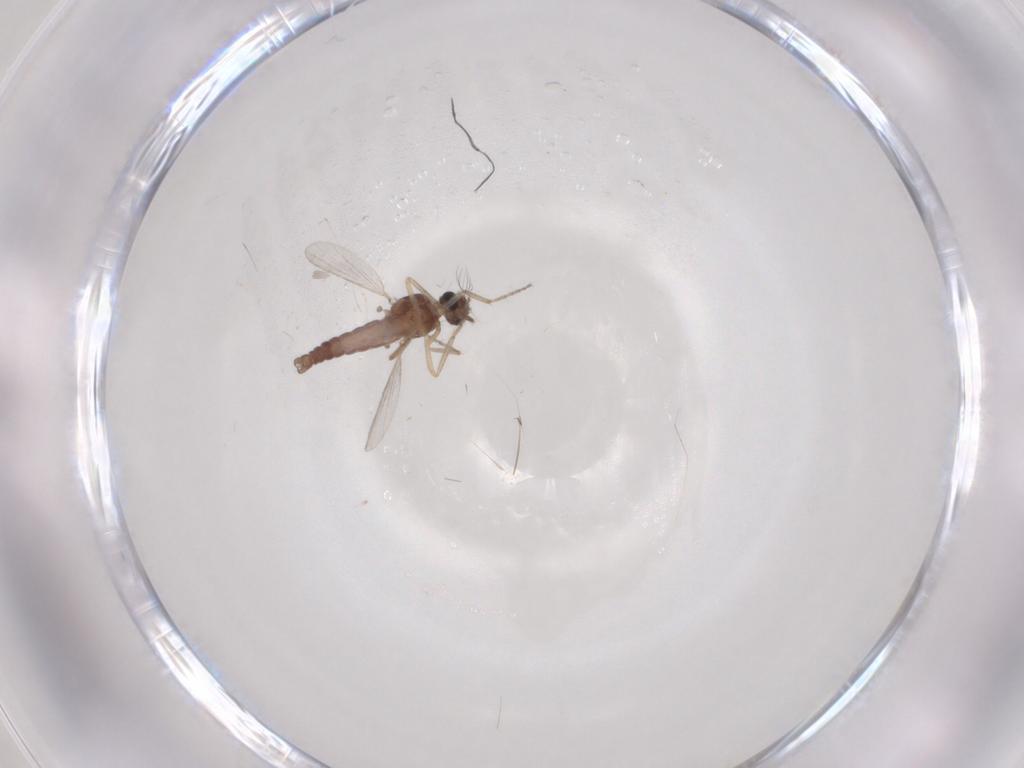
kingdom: Animalia
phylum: Arthropoda
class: Insecta
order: Diptera
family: Ceratopogonidae
